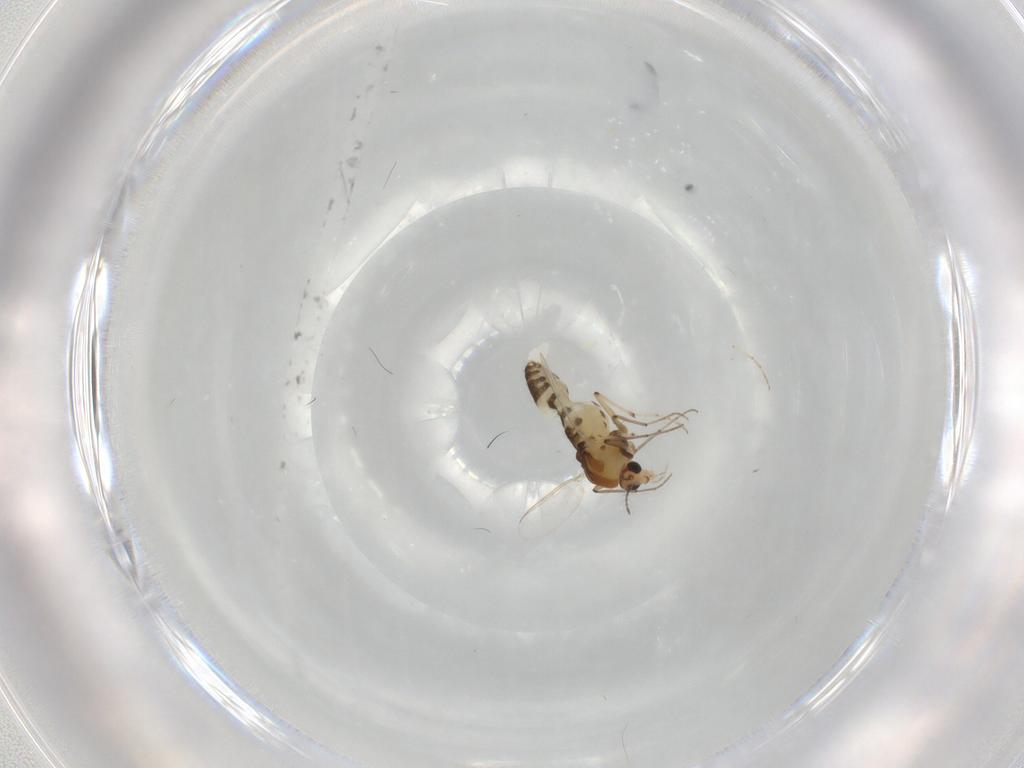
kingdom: Animalia
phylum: Arthropoda
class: Insecta
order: Diptera
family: Chironomidae
